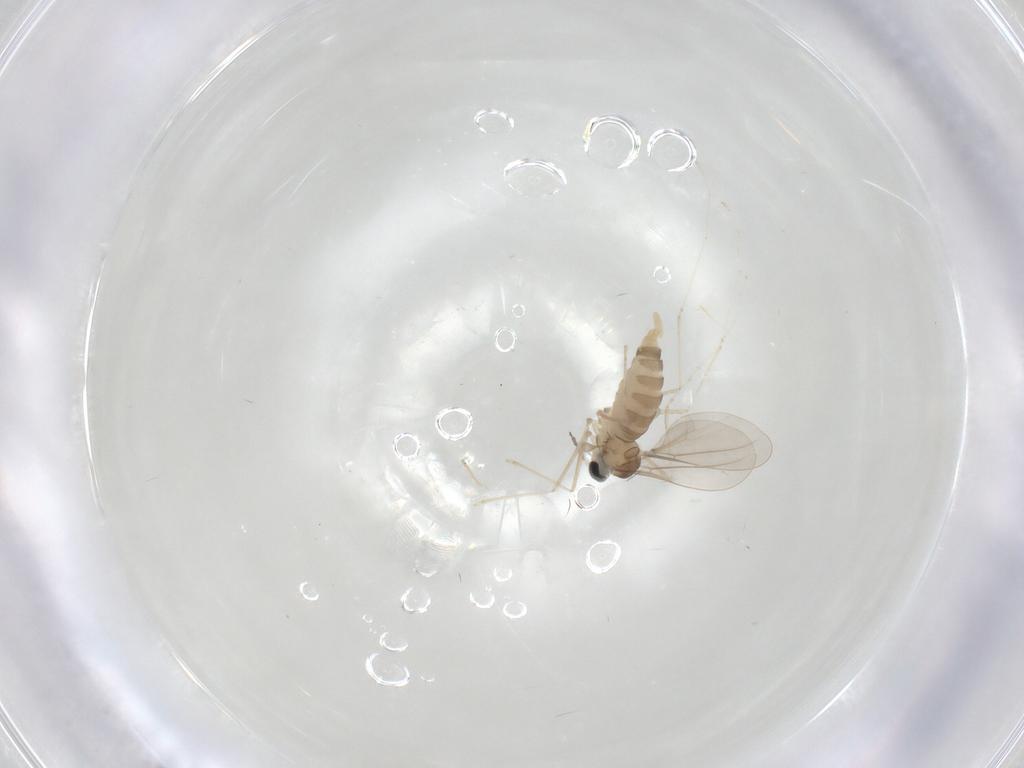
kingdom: Animalia
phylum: Arthropoda
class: Insecta
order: Diptera
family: Cecidomyiidae
